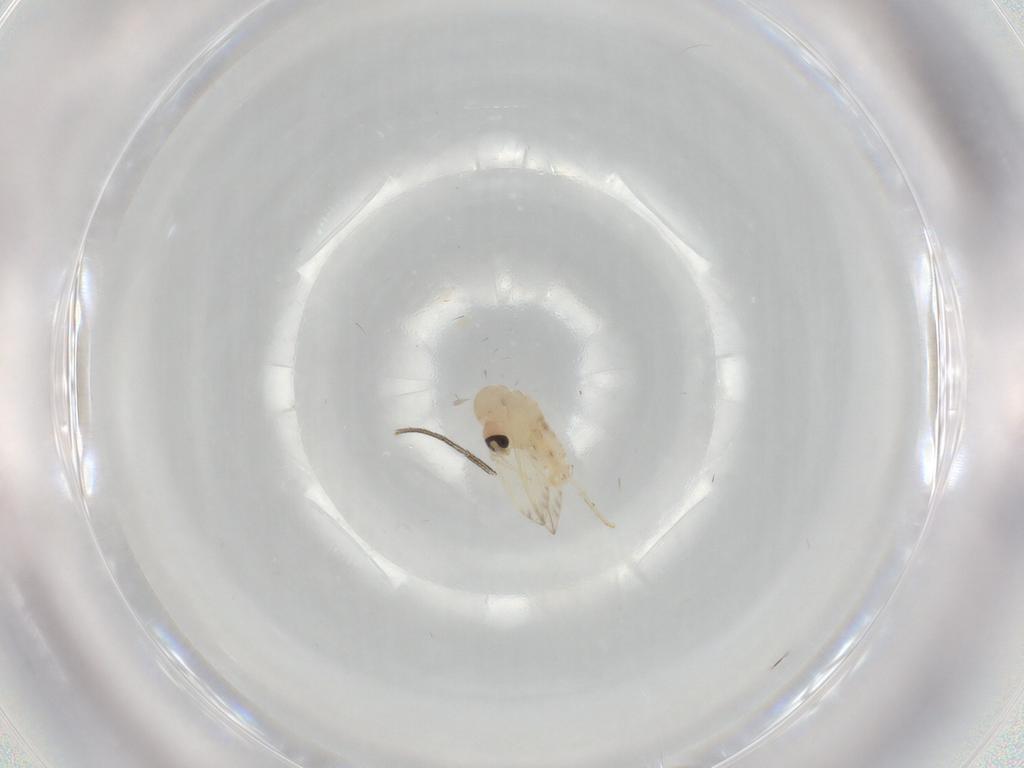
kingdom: Animalia
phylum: Arthropoda
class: Insecta
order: Diptera
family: Psychodidae
